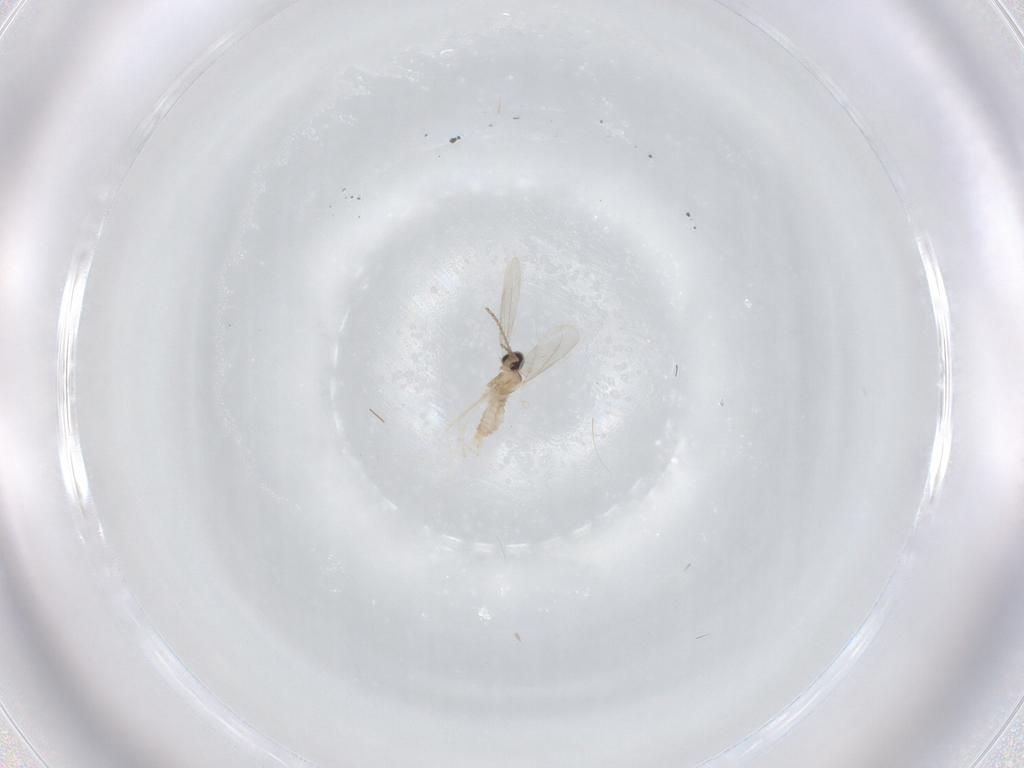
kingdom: Animalia
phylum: Arthropoda
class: Insecta
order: Diptera
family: Cecidomyiidae
